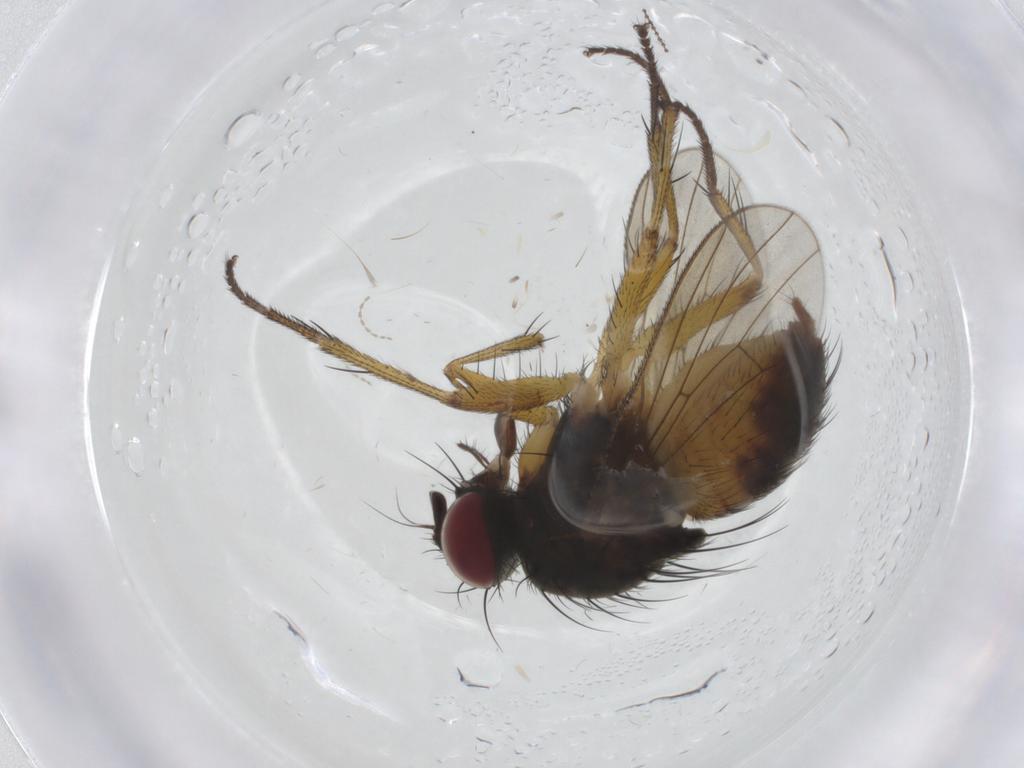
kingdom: Animalia
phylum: Arthropoda
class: Insecta
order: Diptera
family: Muscidae
